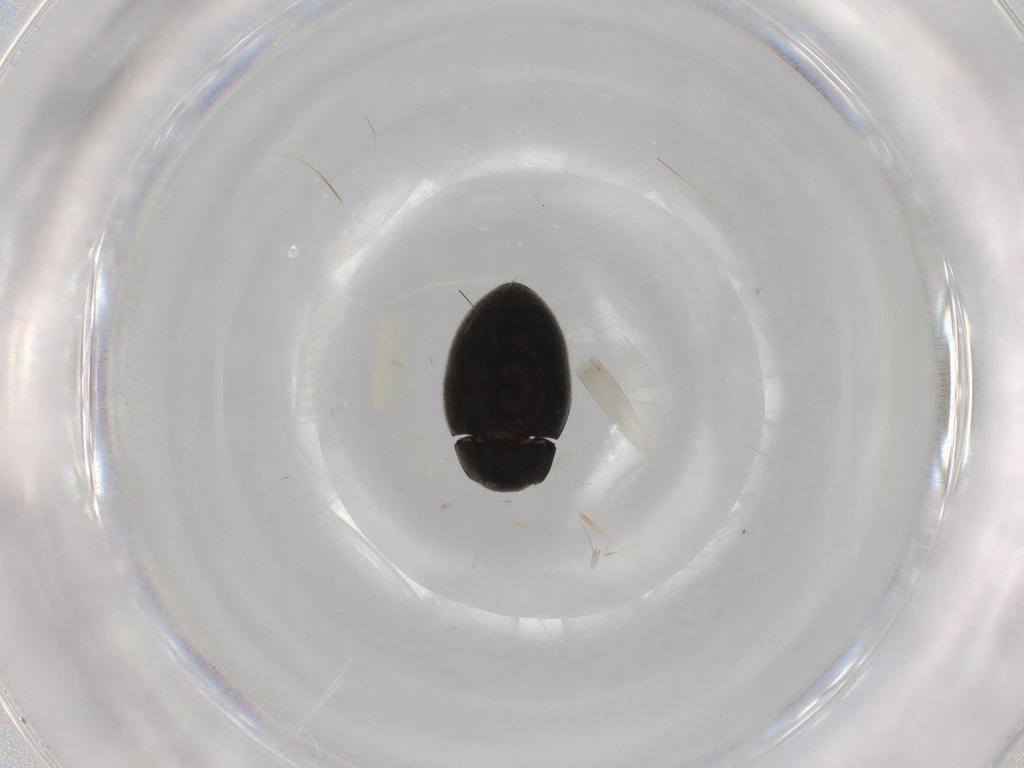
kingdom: Animalia
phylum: Arthropoda
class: Insecta
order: Coleoptera
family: Limnichidae
